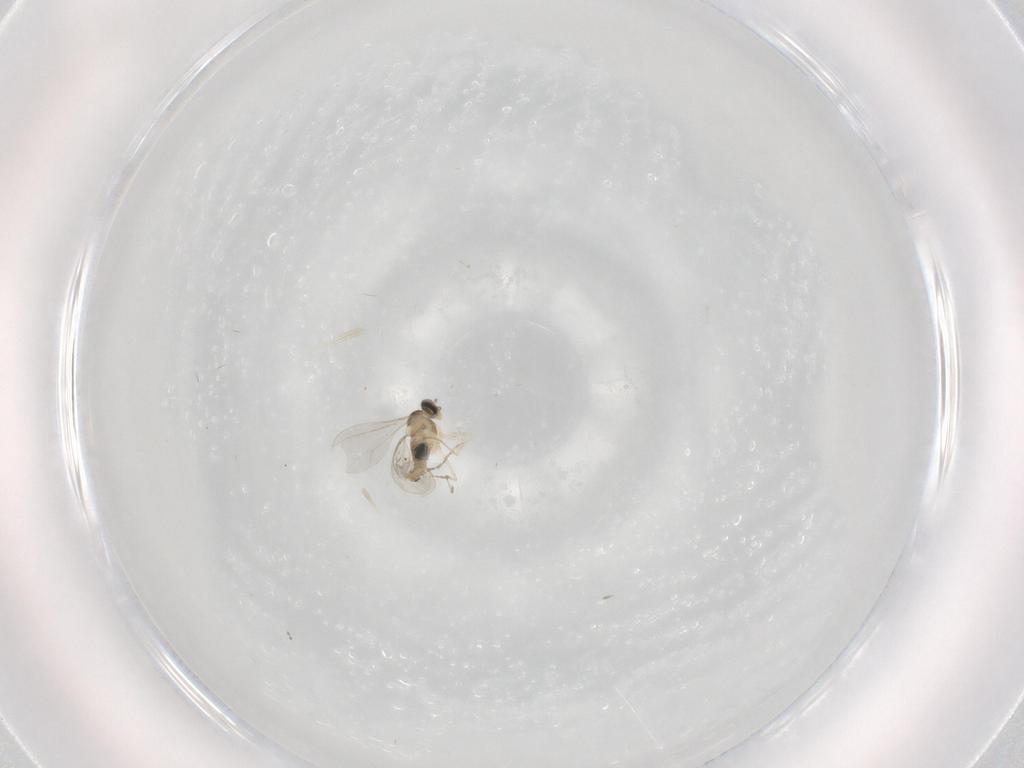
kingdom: Animalia
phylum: Arthropoda
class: Insecta
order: Diptera
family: Cecidomyiidae
